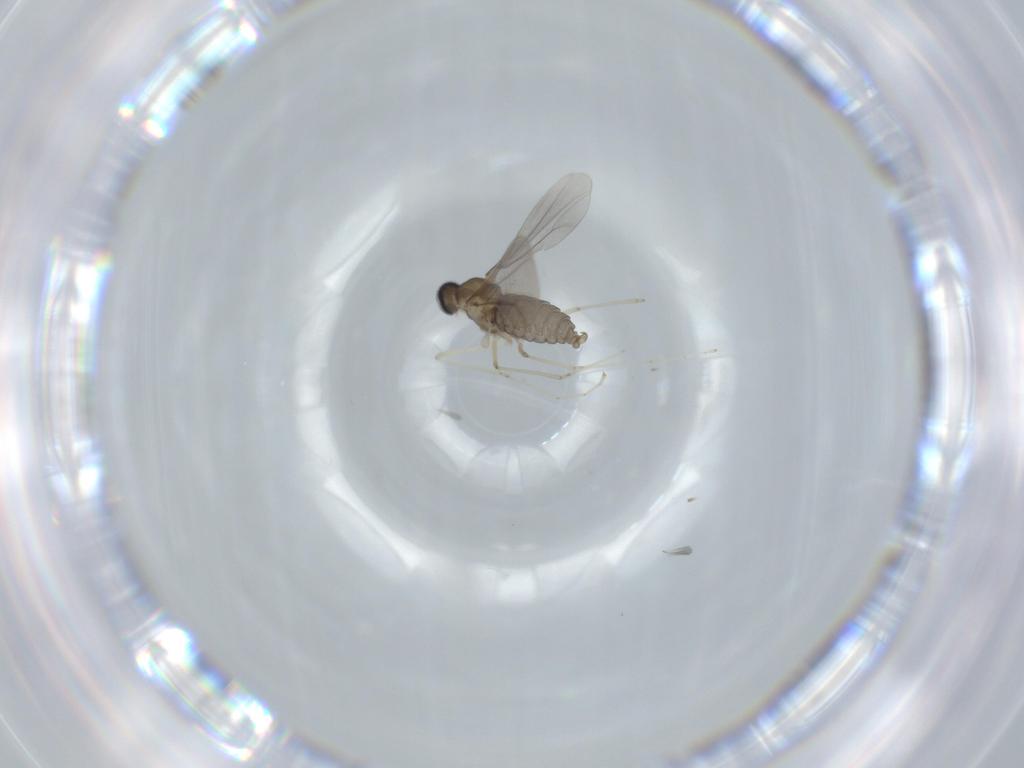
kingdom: Animalia
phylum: Arthropoda
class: Insecta
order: Diptera
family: Cecidomyiidae
